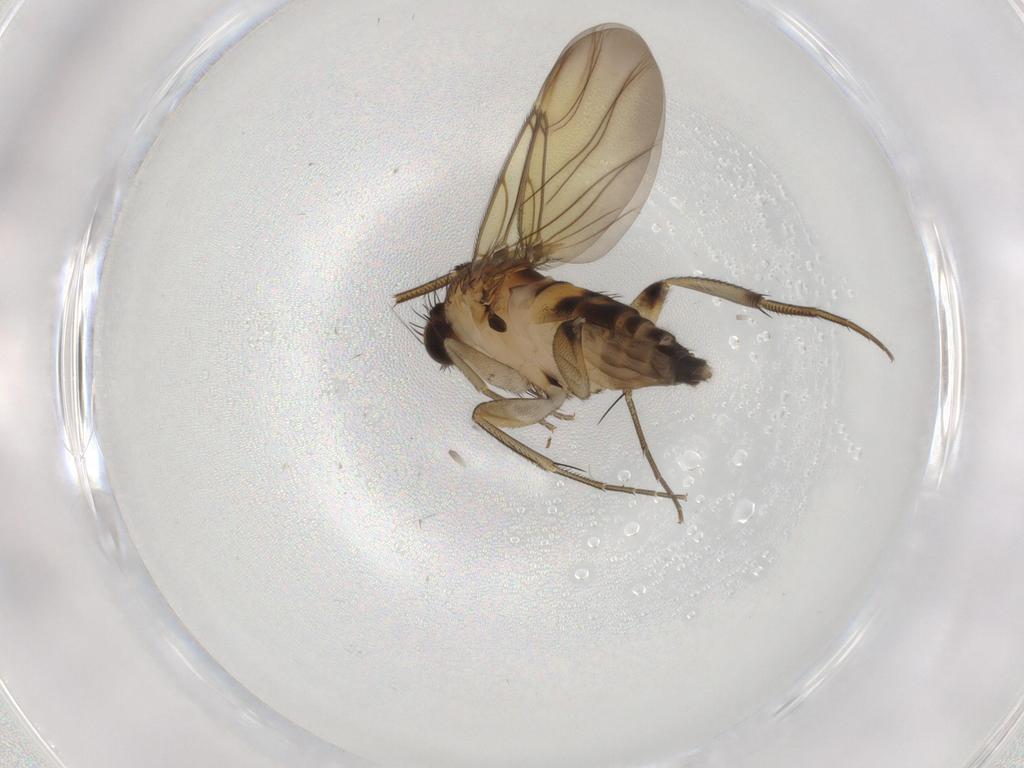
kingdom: Animalia
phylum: Arthropoda
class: Insecta
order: Diptera
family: Phoridae
